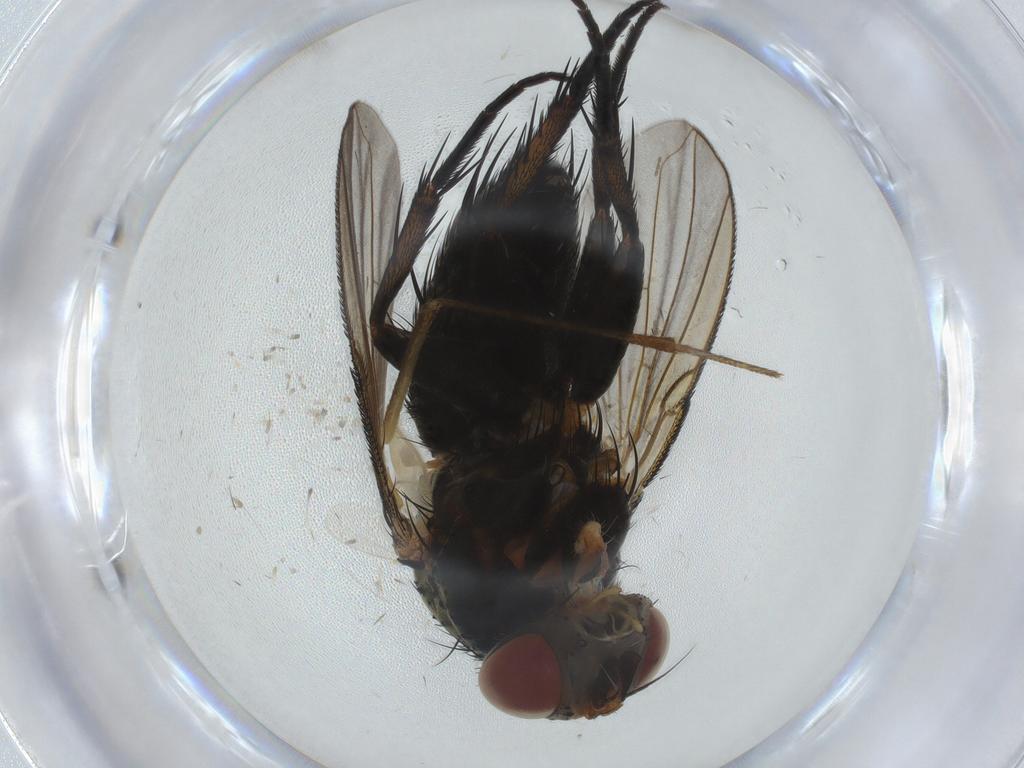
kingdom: Animalia
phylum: Arthropoda
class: Insecta
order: Diptera
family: Tachinidae
